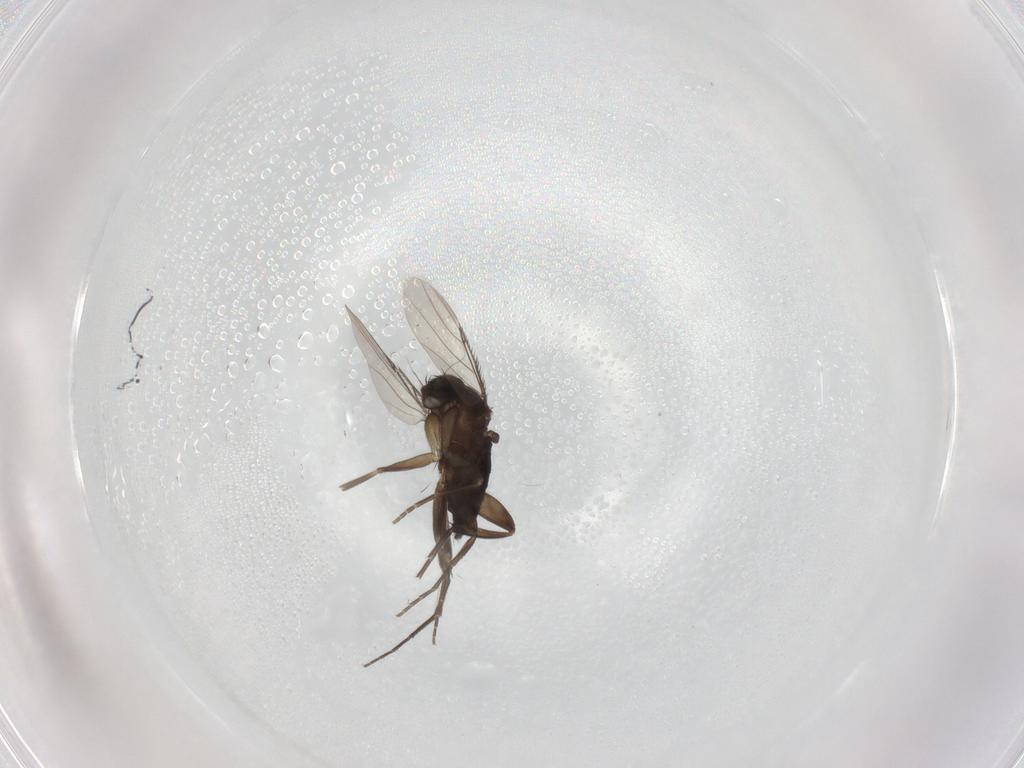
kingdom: Animalia
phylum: Arthropoda
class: Insecta
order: Diptera
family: Phoridae
